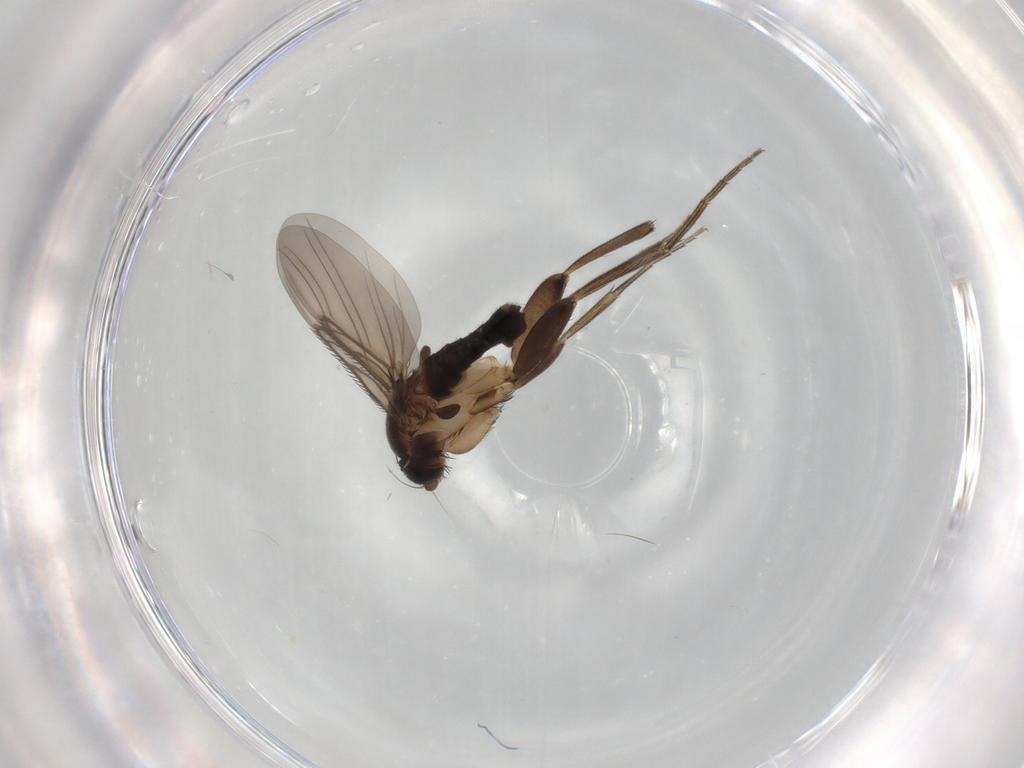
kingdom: Animalia
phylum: Arthropoda
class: Insecta
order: Diptera
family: Phoridae
